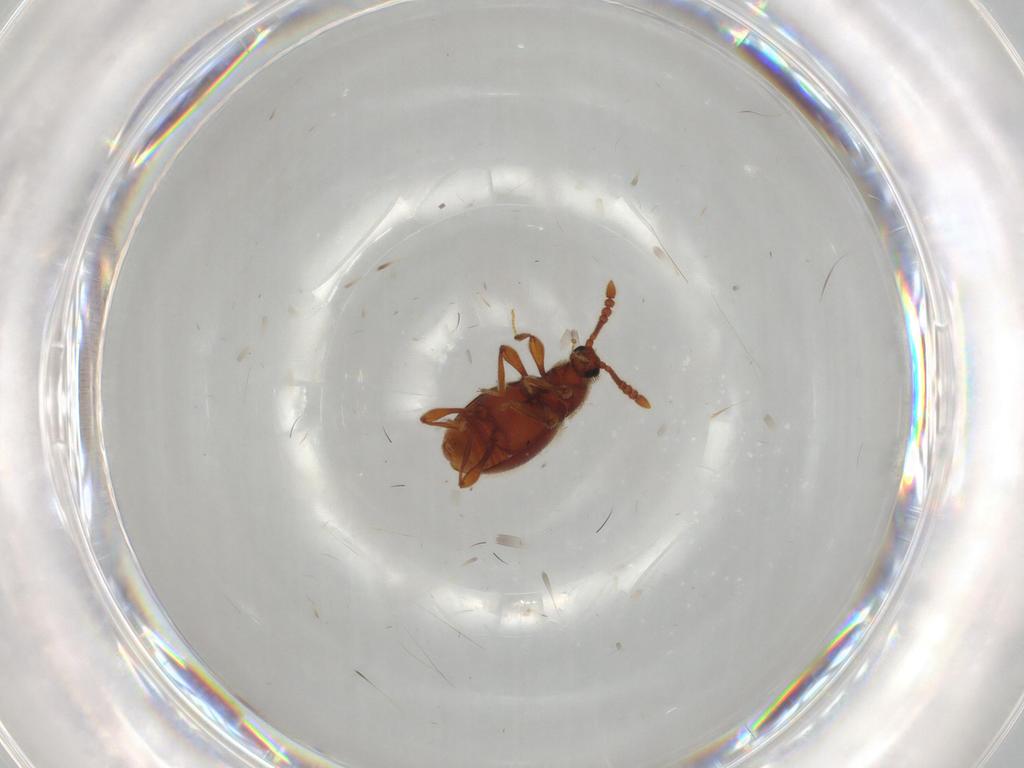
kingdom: Animalia
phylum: Arthropoda
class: Insecta
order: Coleoptera
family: Staphylinidae
